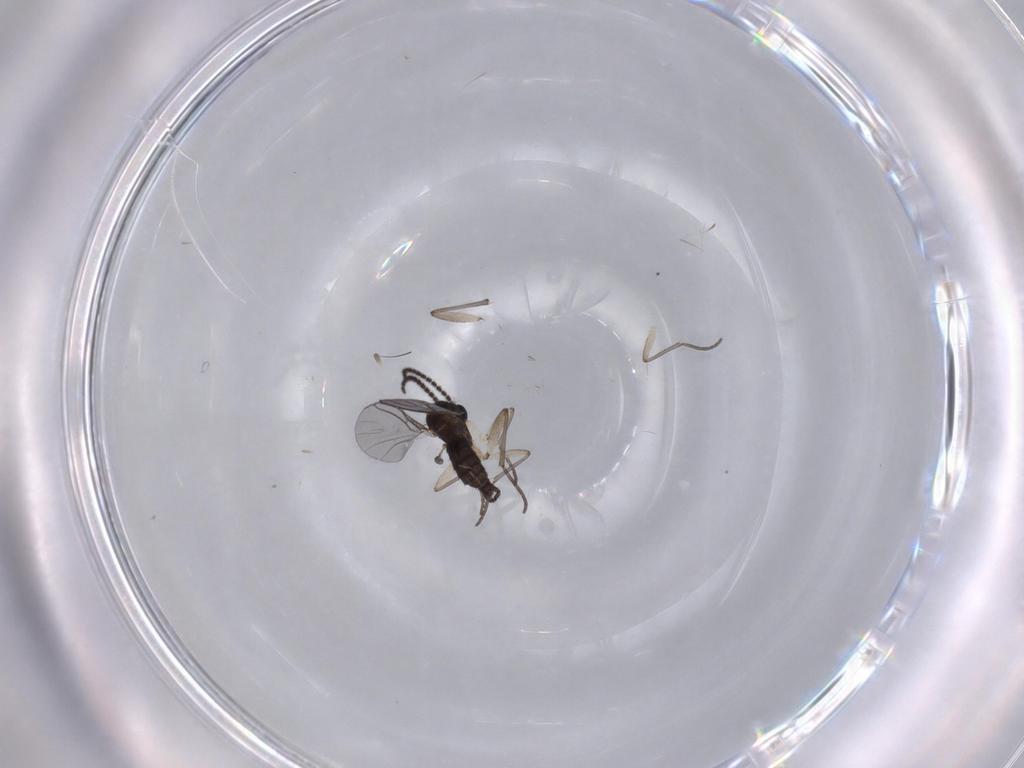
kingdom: Animalia
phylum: Arthropoda
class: Insecta
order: Diptera
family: Sciaridae
